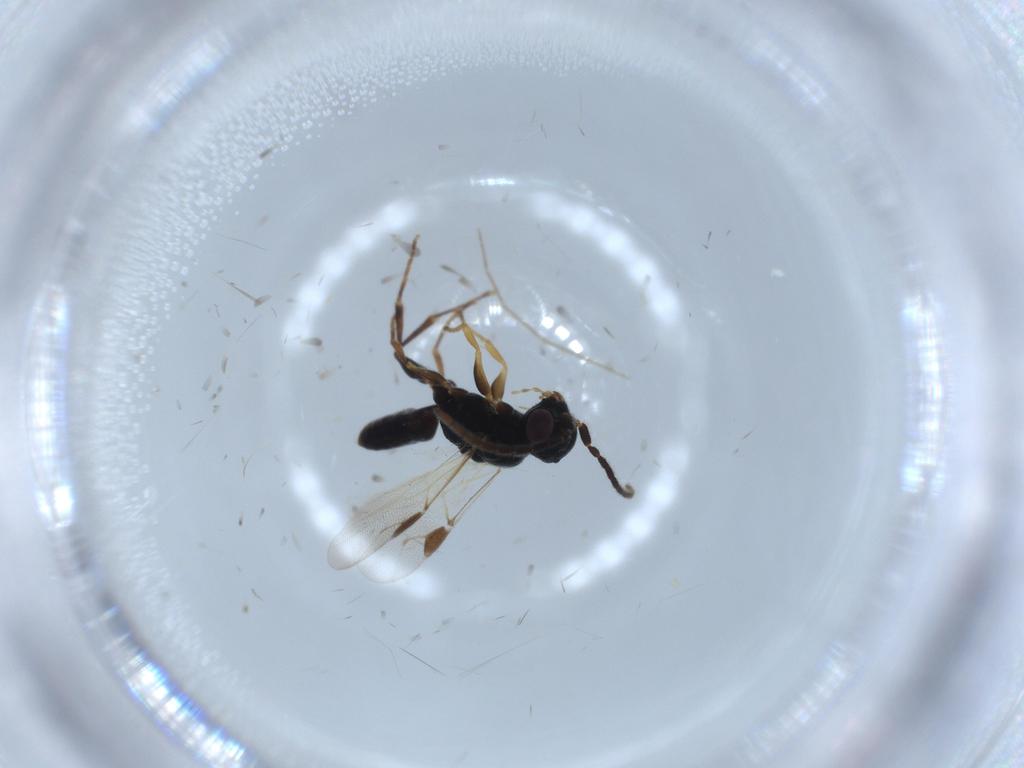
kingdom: Animalia
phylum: Arthropoda
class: Insecta
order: Hymenoptera
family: Dryinidae
